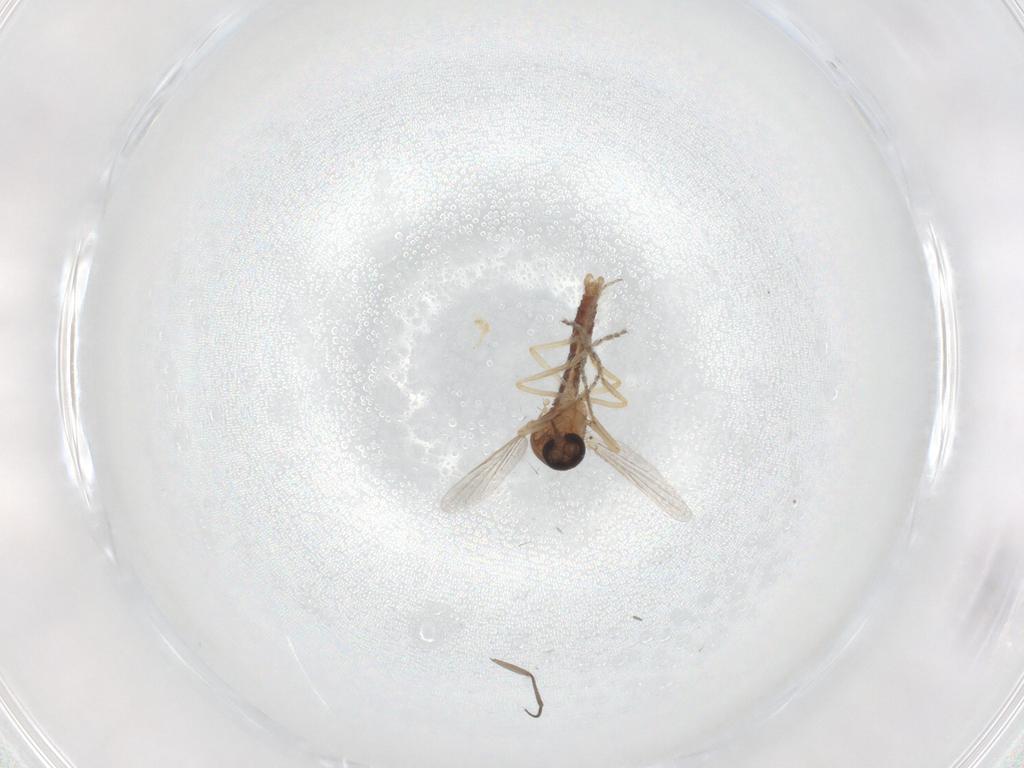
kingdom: Animalia
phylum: Arthropoda
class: Insecta
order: Diptera
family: Ceratopogonidae
